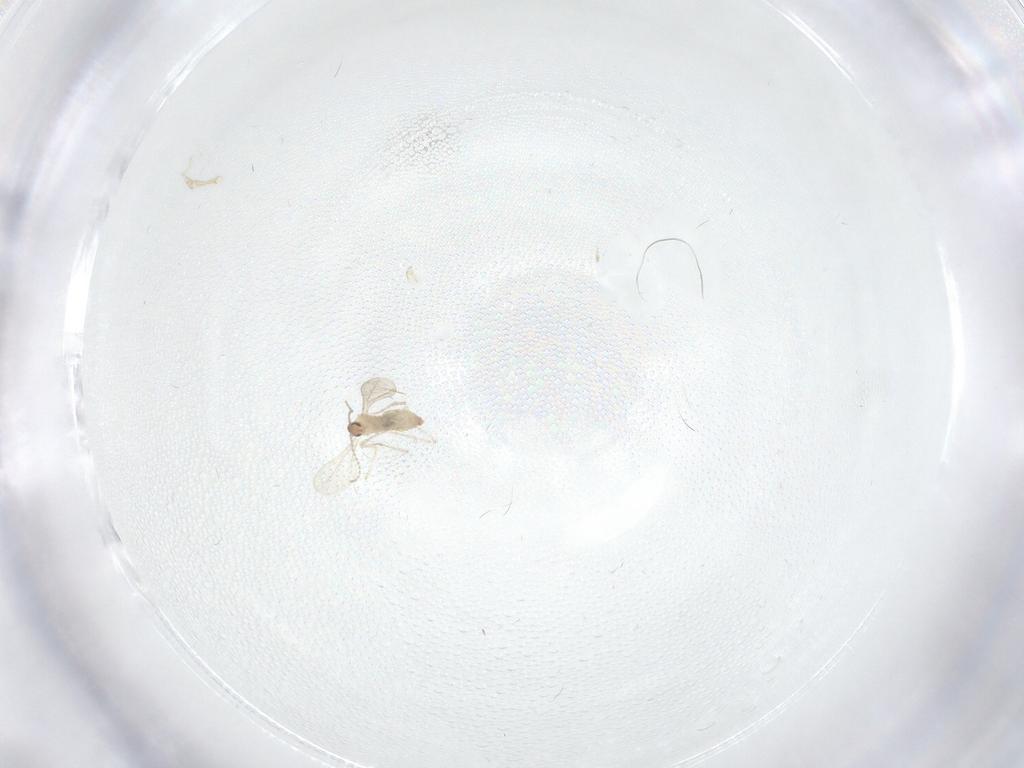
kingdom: Animalia
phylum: Arthropoda
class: Insecta
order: Diptera
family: Cecidomyiidae
